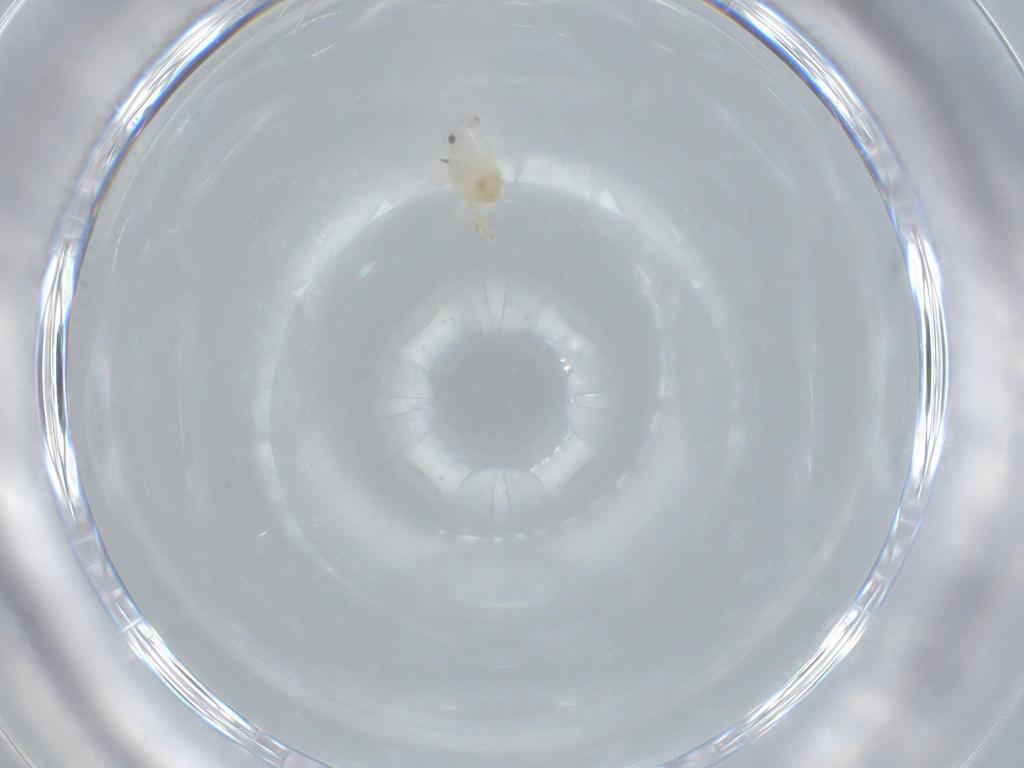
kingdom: Animalia
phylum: Arthropoda
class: Insecta
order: Hemiptera
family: Flatidae
